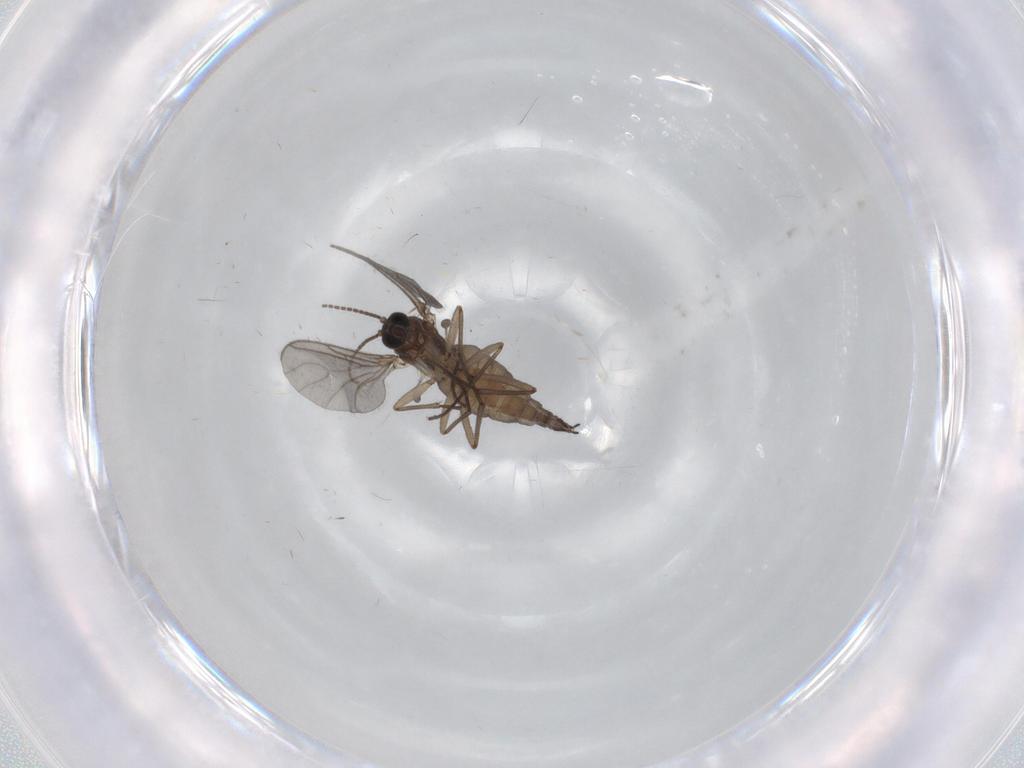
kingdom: Animalia
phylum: Arthropoda
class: Insecta
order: Diptera
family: Sciaridae
